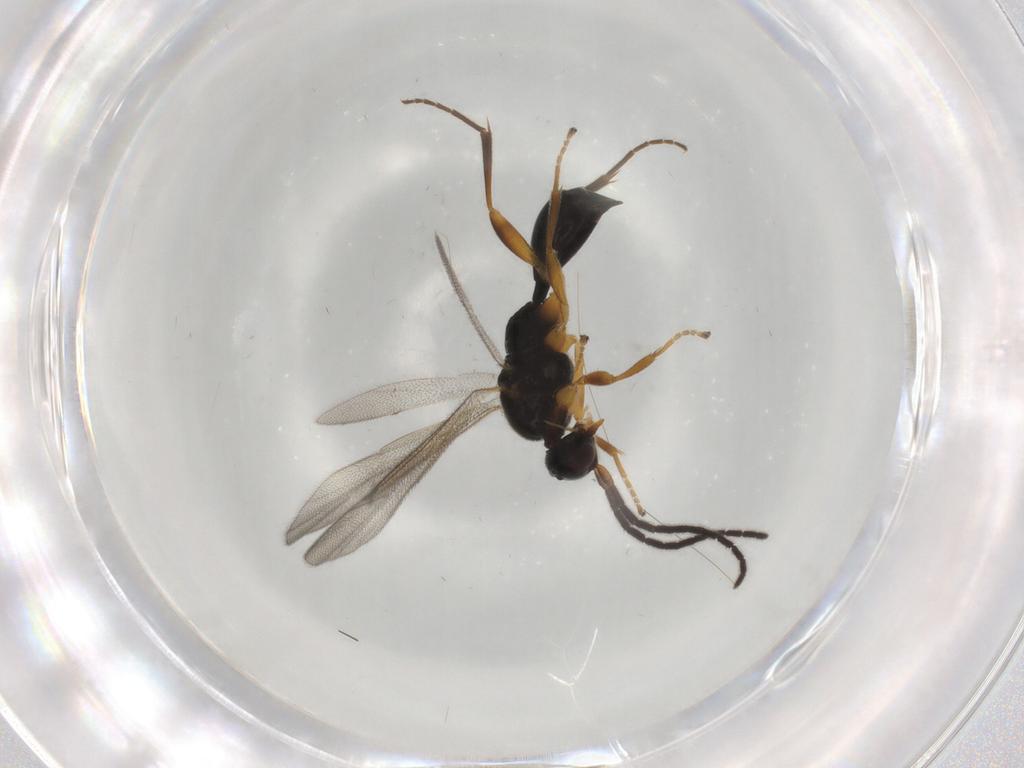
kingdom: Animalia
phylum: Arthropoda
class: Insecta
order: Hymenoptera
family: Proctotrupidae
